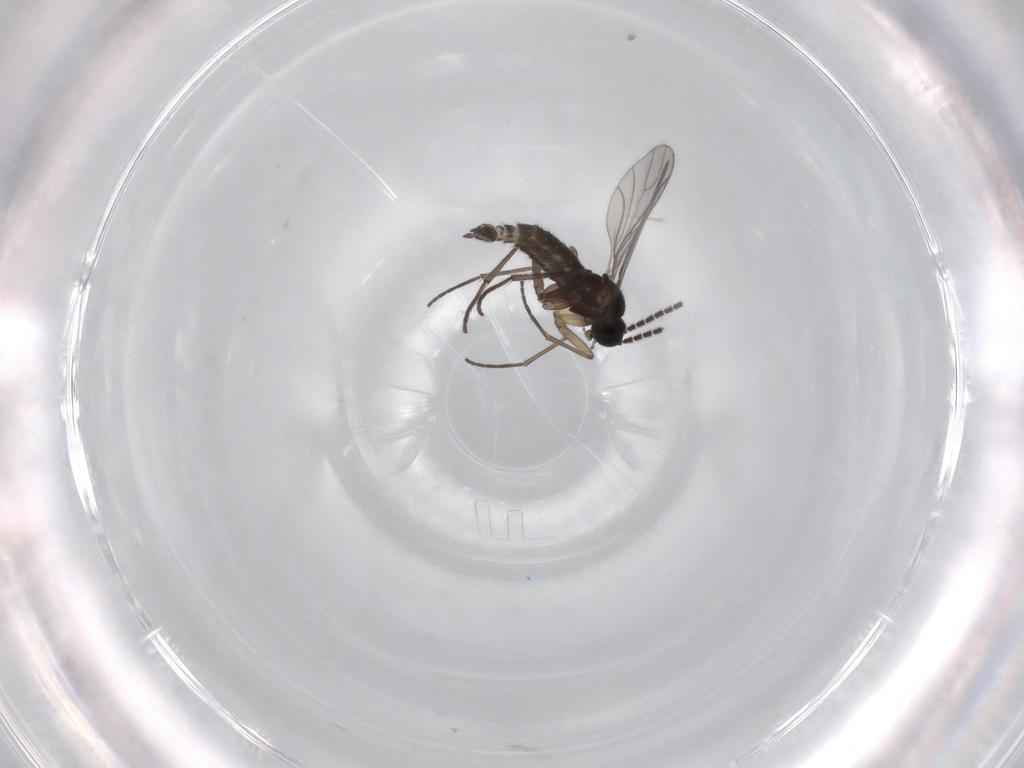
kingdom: Animalia
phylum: Arthropoda
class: Insecta
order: Diptera
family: Sciaridae
